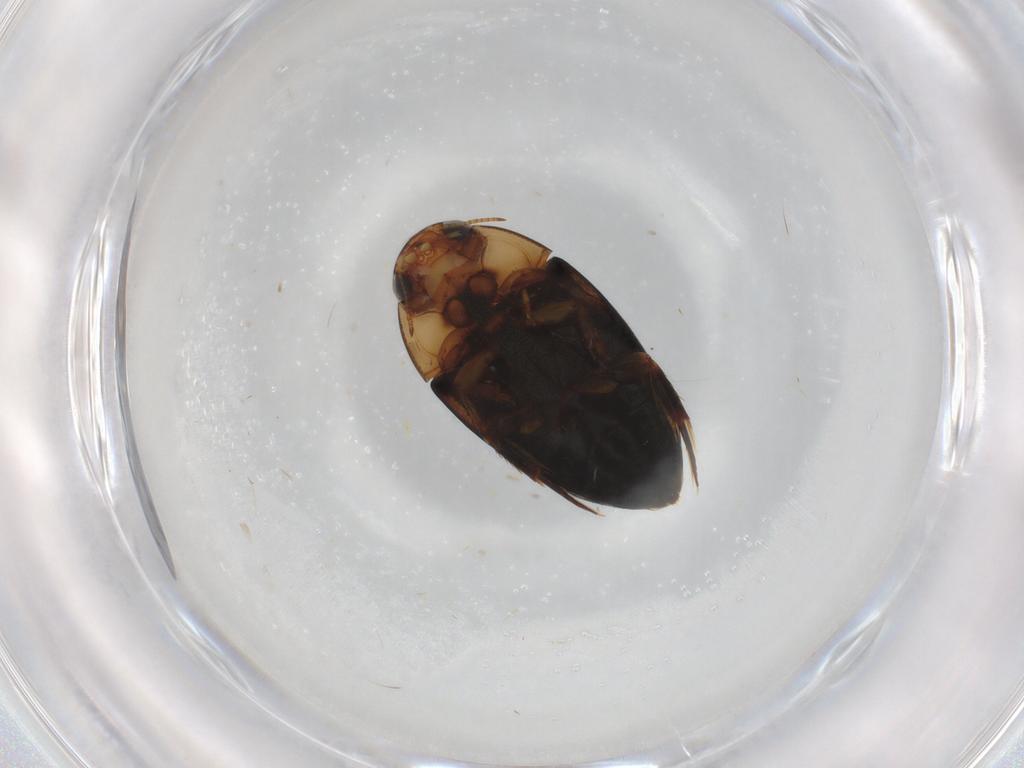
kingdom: Animalia
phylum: Arthropoda
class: Insecta
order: Coleoptera
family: Noteridae
